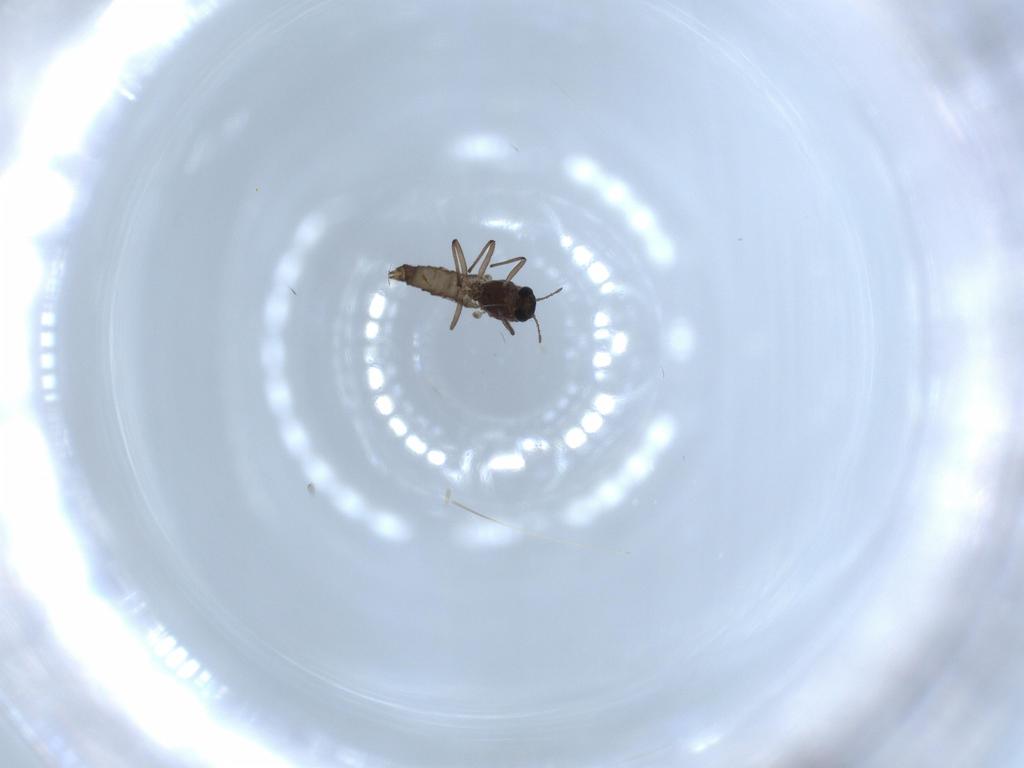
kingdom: Animalia
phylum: Arthropoda
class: Insecta
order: Diptera
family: Chironomidae
